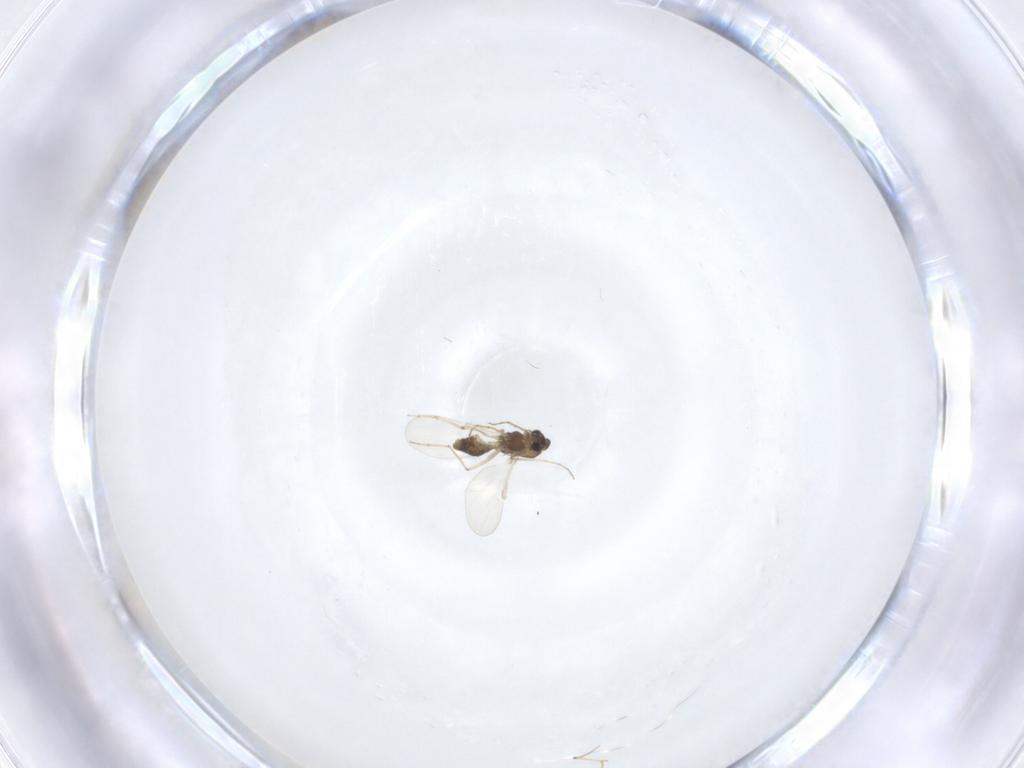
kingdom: Animalia
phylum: Arthropoda
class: Insecta
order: Diptera
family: Chironomidae
